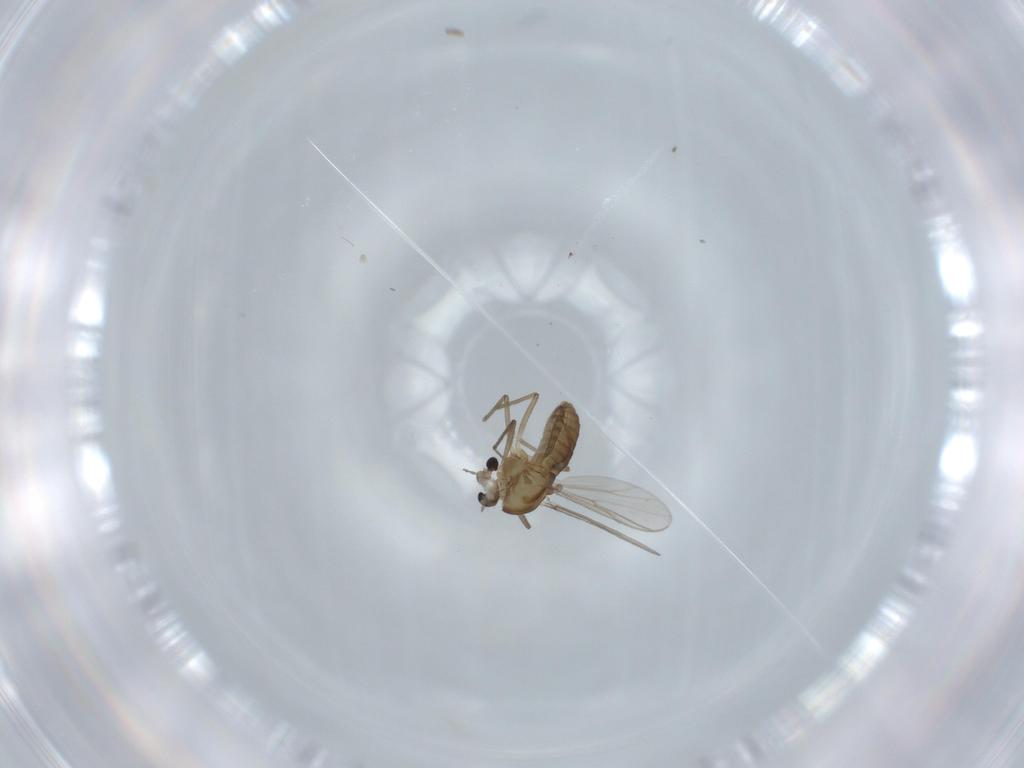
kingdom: Animalia
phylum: Arthropoda
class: Insecta
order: Diptera
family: Chironomidae
